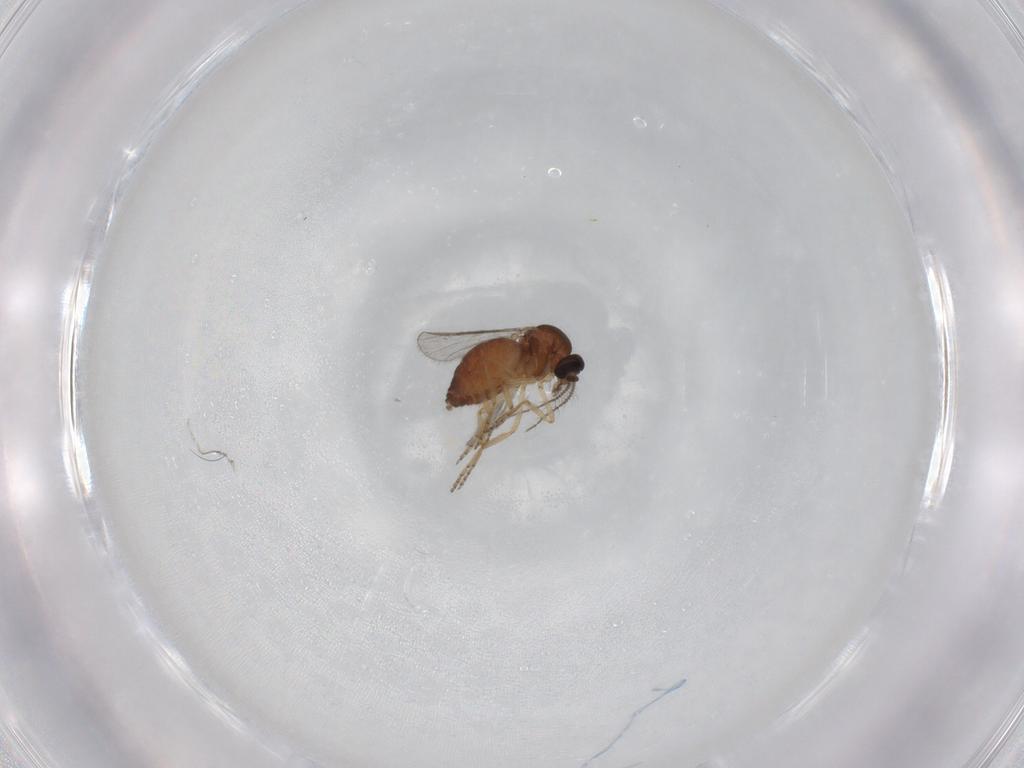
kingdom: Animalia
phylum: Arthropoda
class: Insecta
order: Diptera
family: Ceratopogonidae
